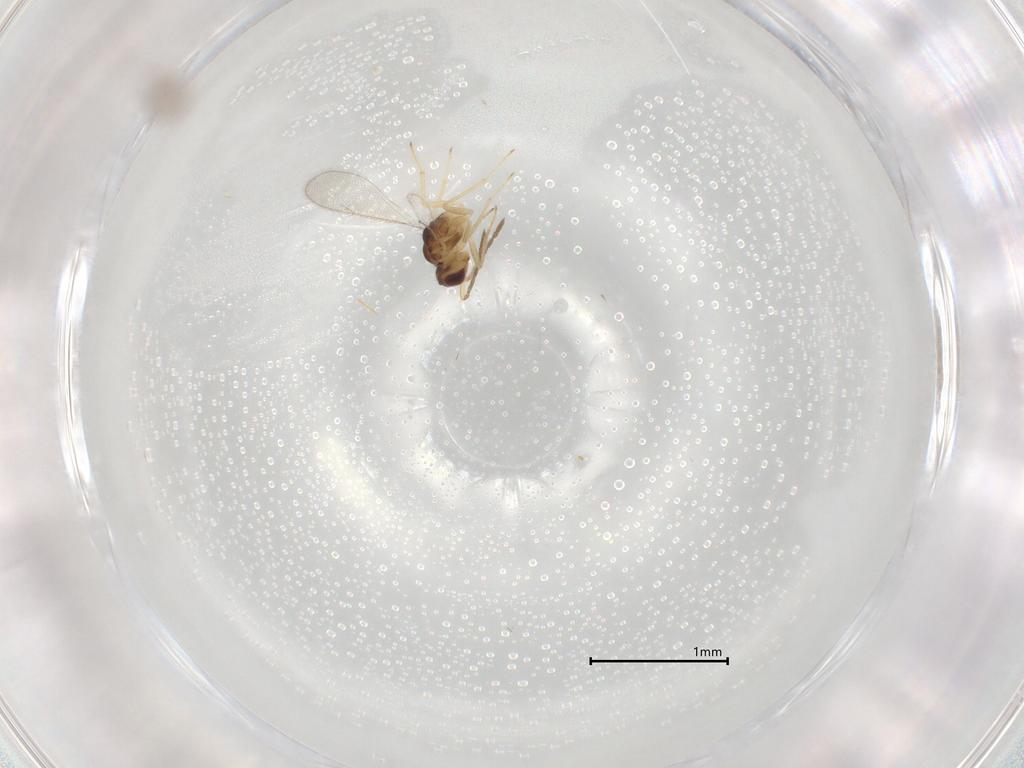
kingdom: Animalia
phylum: Arthropoda
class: Insecta
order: Hymenoptera
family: Eulophidae
